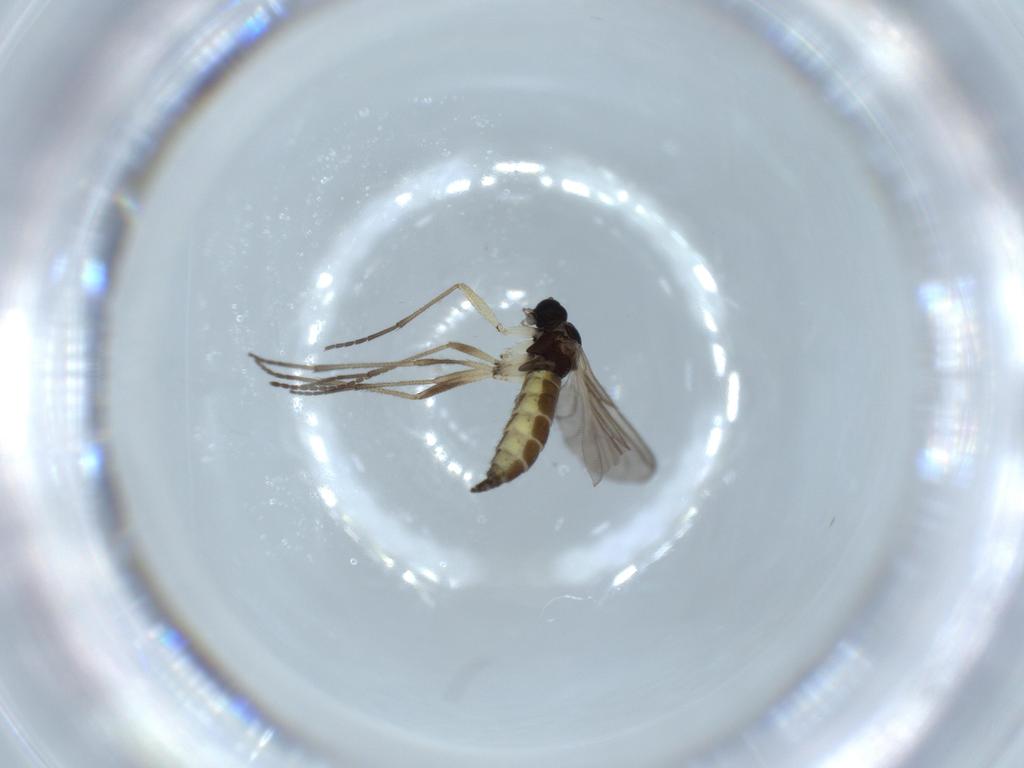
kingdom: Animalia
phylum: Arthropoda
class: Insecta
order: Diptera
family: Sciaridae
